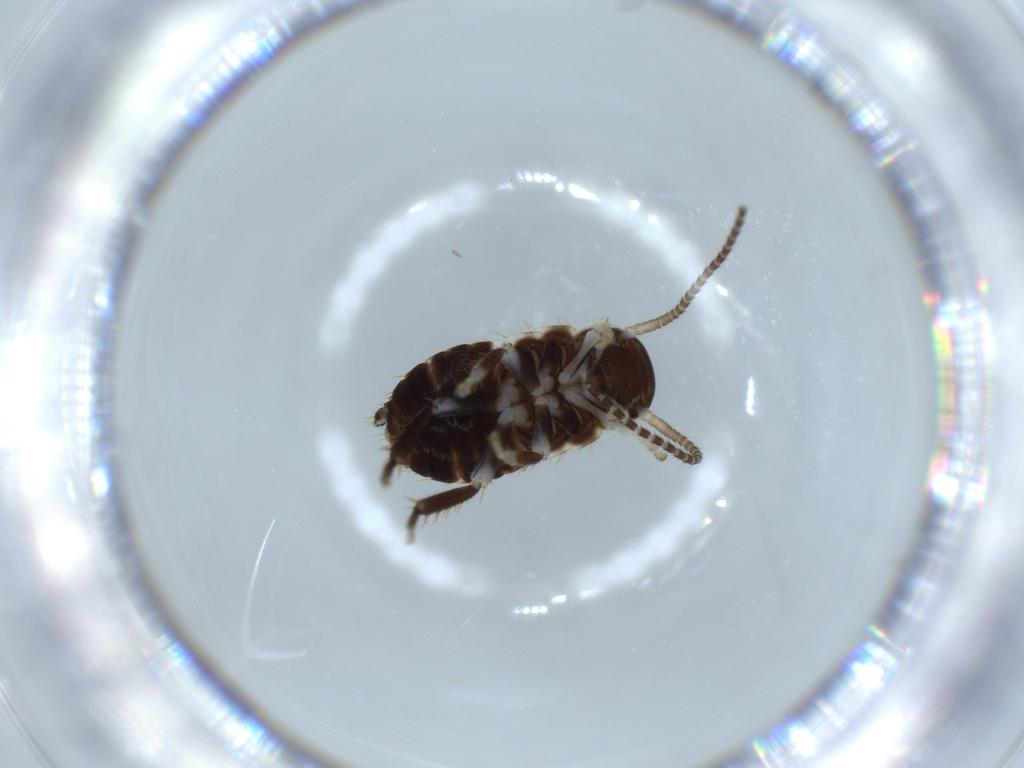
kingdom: Animalia
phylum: Arthropoda
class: Insecta
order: Blattodea
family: Ectobiidae
